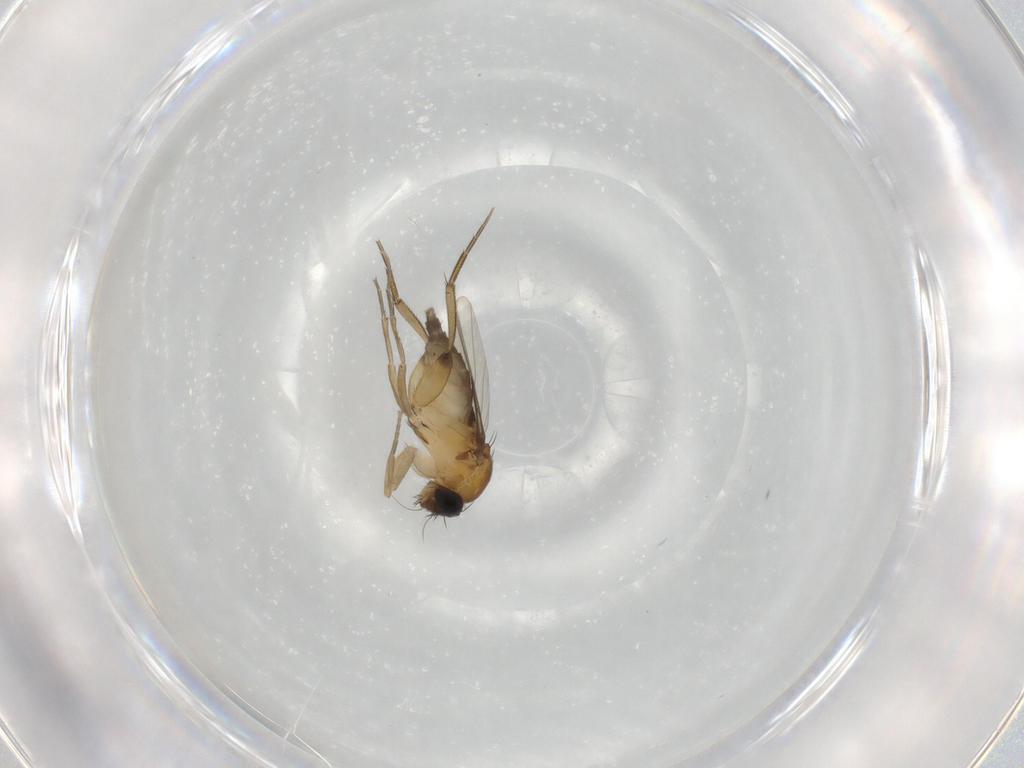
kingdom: Animalia
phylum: Arthropoda
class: Insecta
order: Diptera
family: Phoridae
